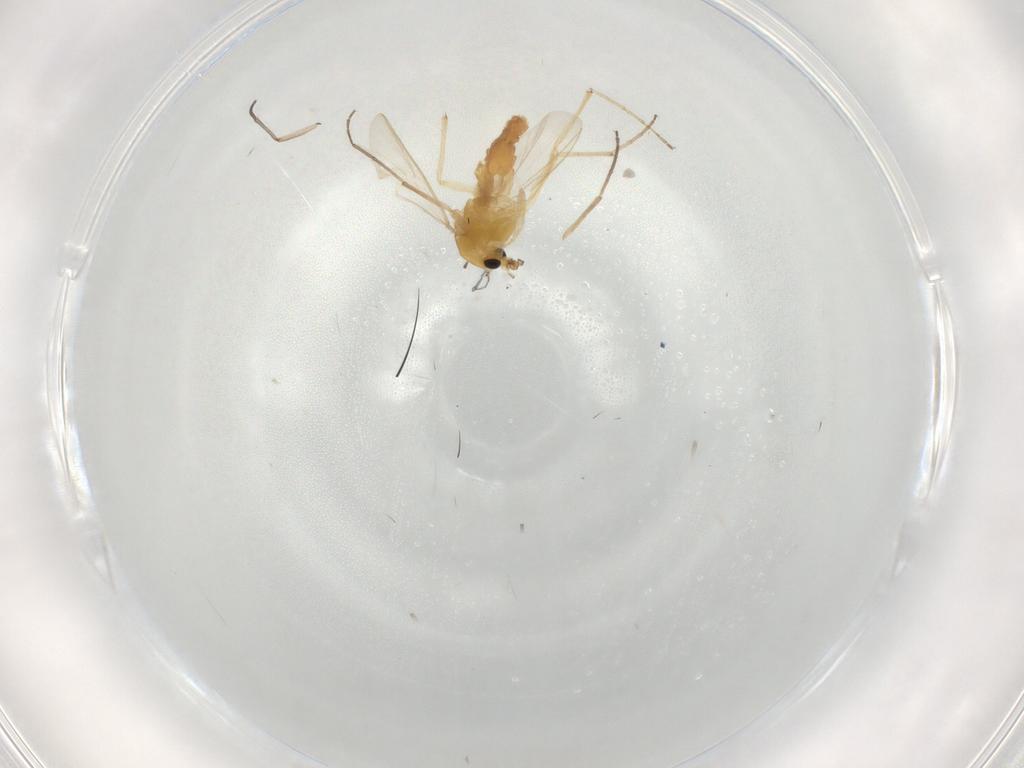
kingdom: Animalia
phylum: Arthropoda
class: Insecta
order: Diptera
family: Chironomidae
